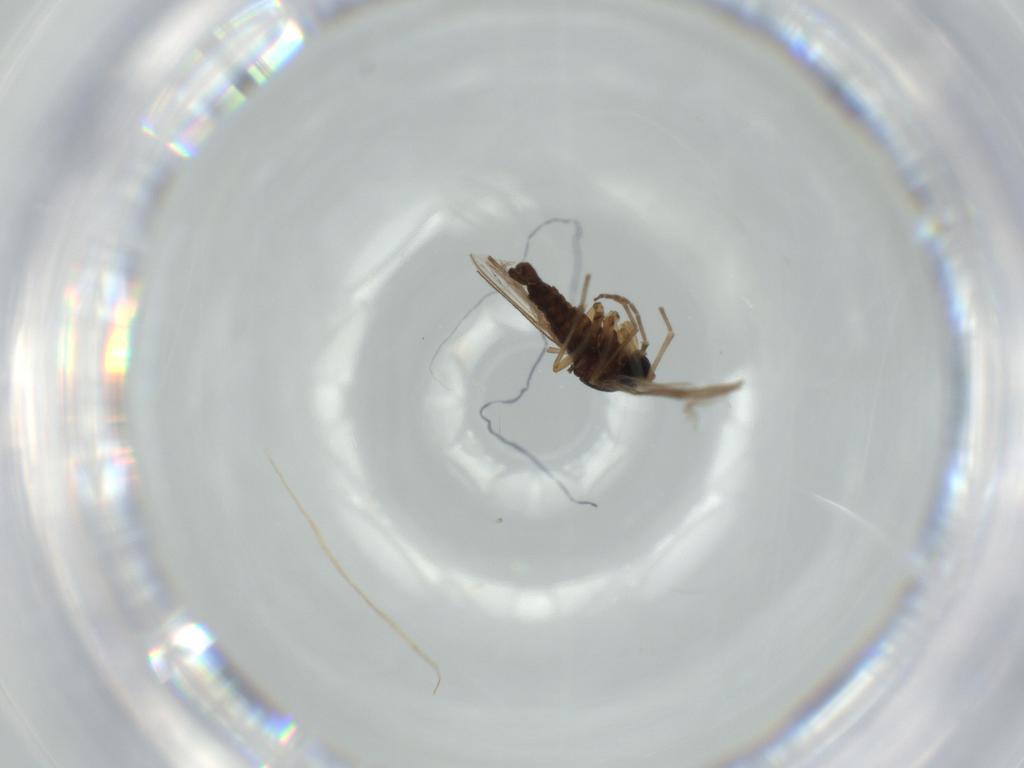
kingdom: Animalia
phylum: Arthropoda
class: Insecta
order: Diptera
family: Sciaridae
